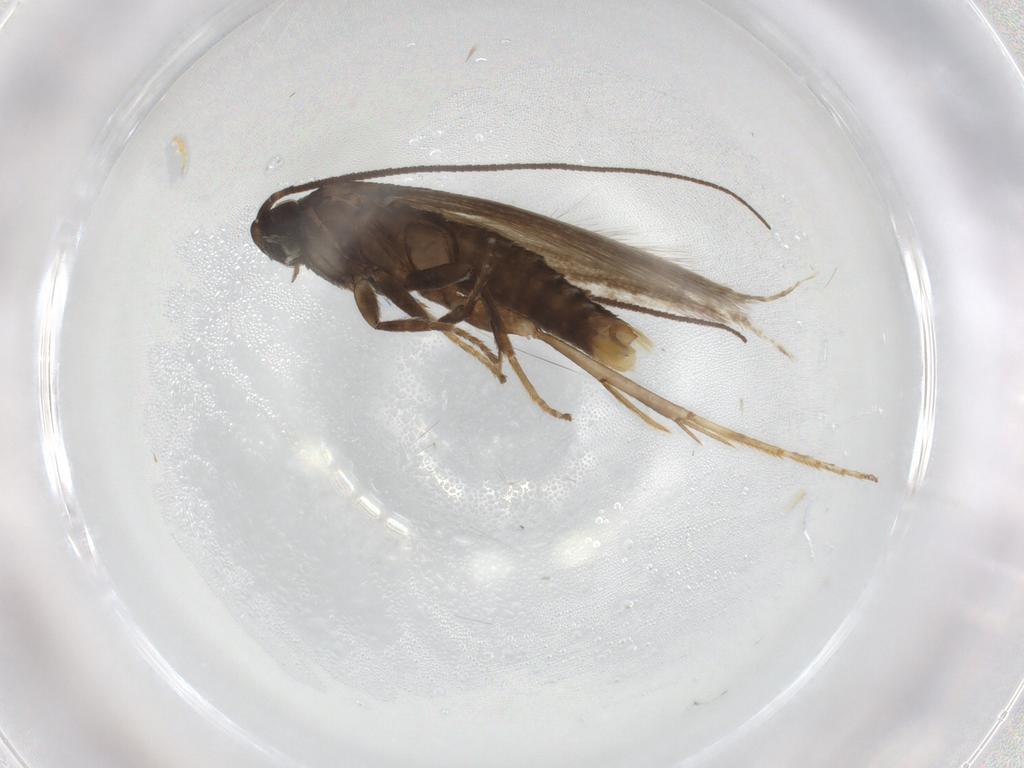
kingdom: Animalia
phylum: Arthropoda
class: Insecta
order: Lepidoptera
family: Tineidae
